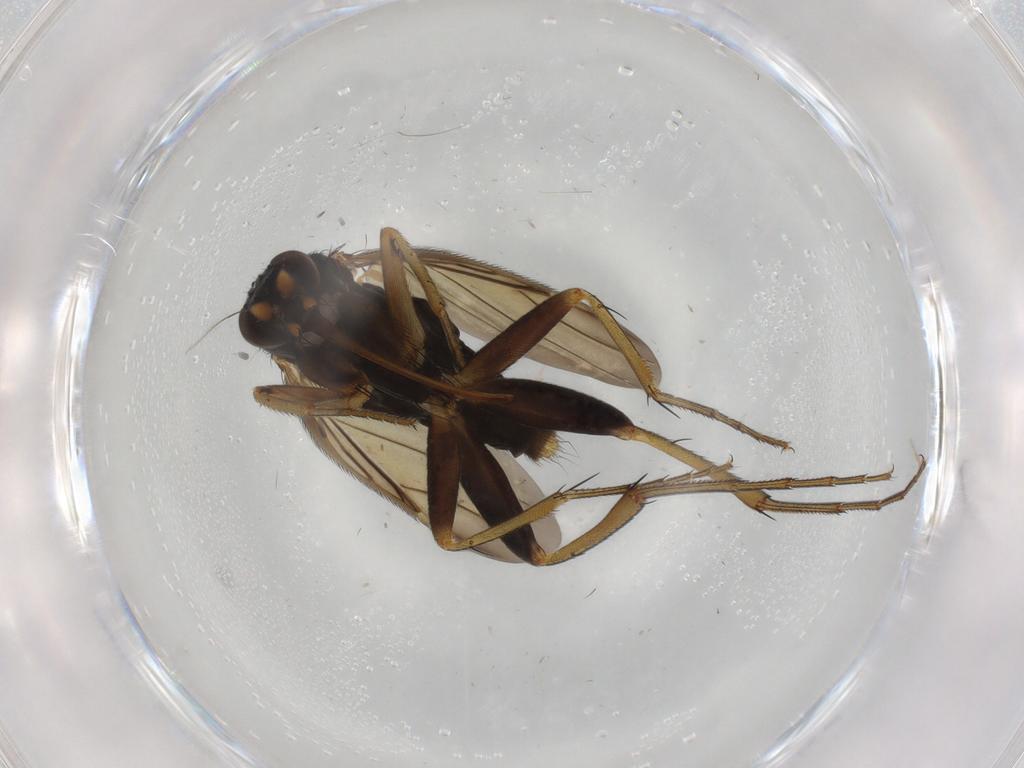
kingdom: Animalia
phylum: Arthropoda
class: Insecta
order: Diptera
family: Phoridae
